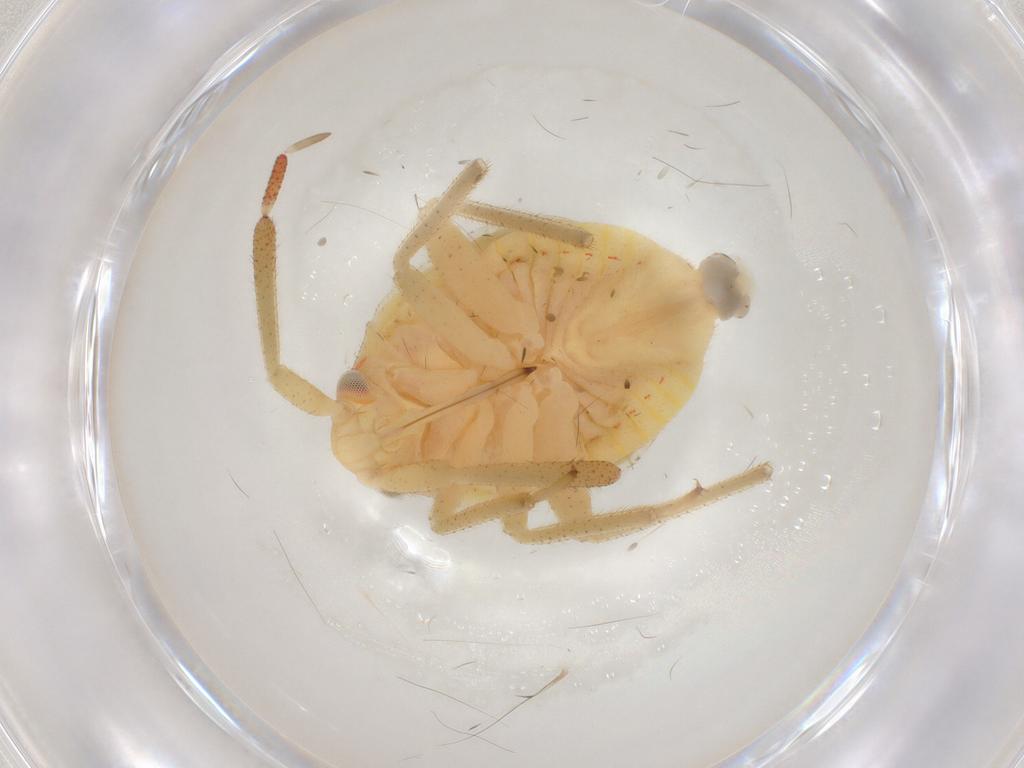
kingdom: Animalia
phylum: Arthropoda
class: Insecta
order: Hemiptera
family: Miridae
